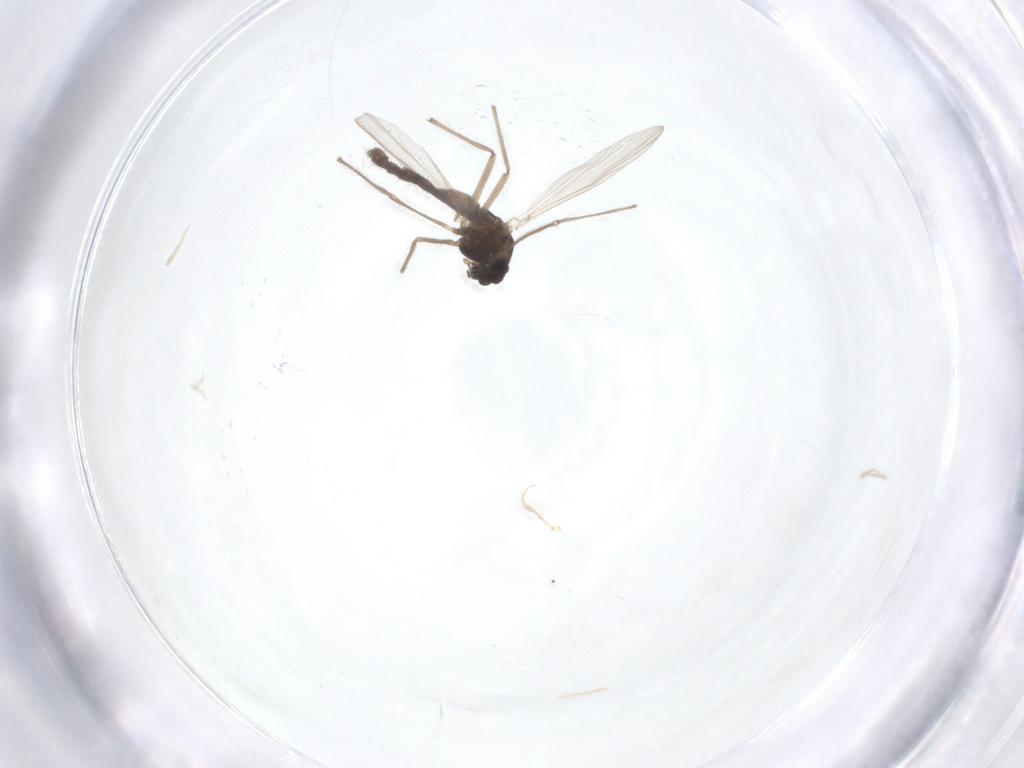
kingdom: Animalia
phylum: Arthropoda
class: Insecta
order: Diptera
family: Chironomidae
